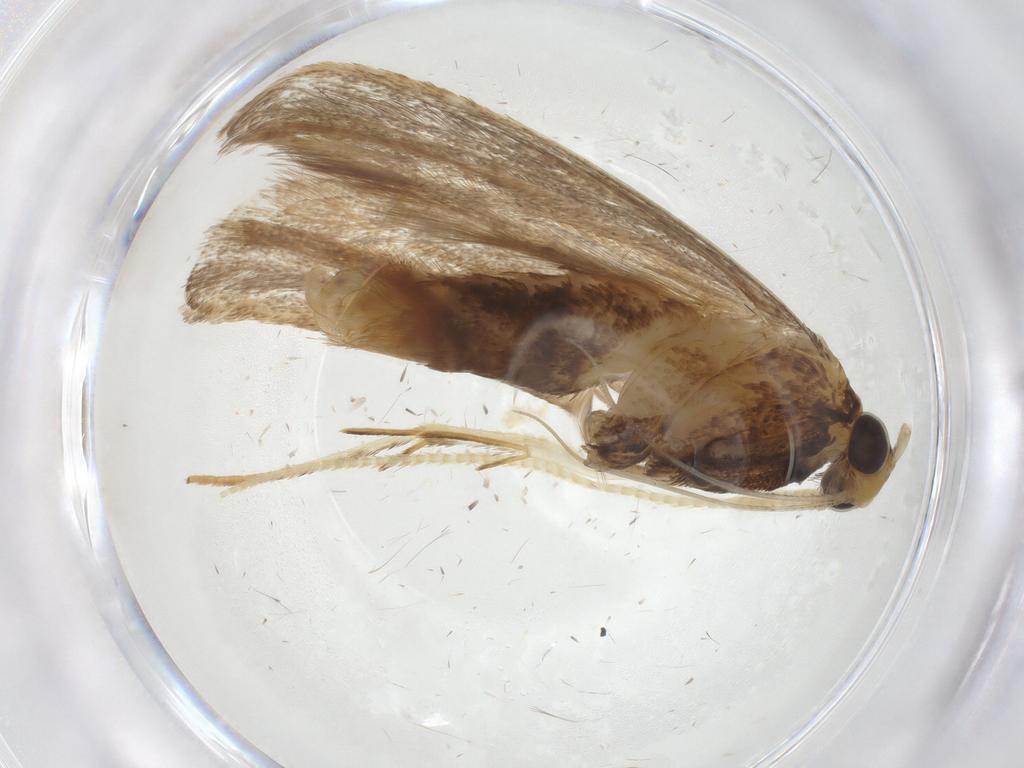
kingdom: Animalia
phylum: Arthropoda
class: Insecta
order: Lepidoptera
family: Lecithoceridae
